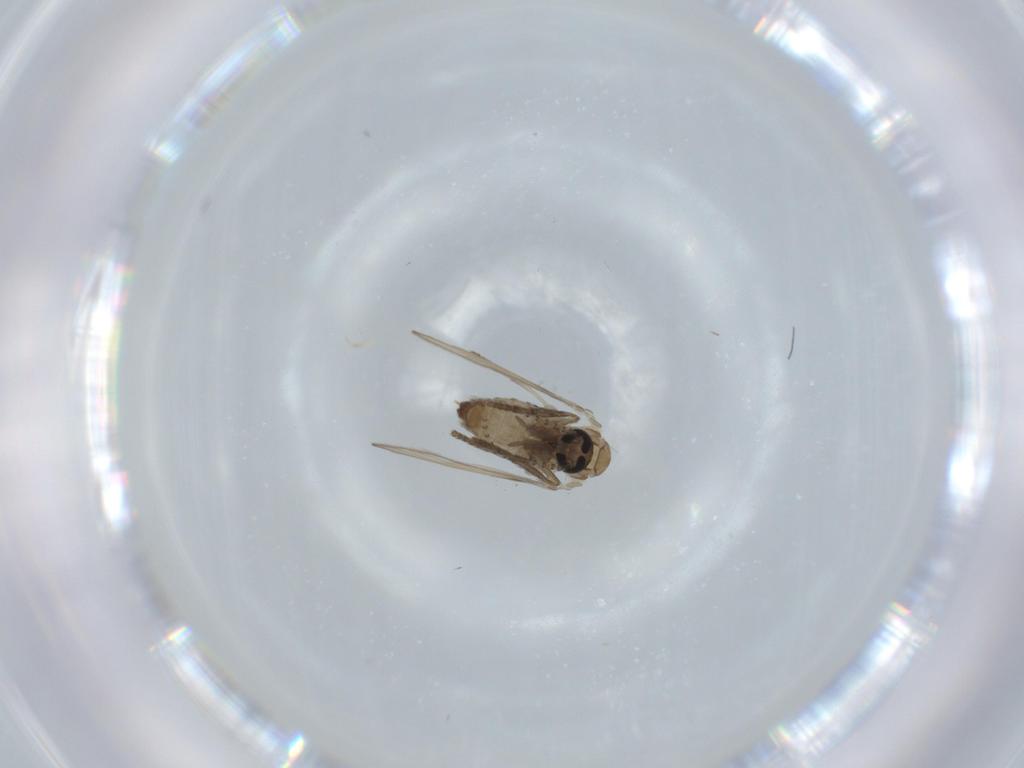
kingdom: Animalia
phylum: Arthropoda
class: Insecta
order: Diptera
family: Psychodidae
